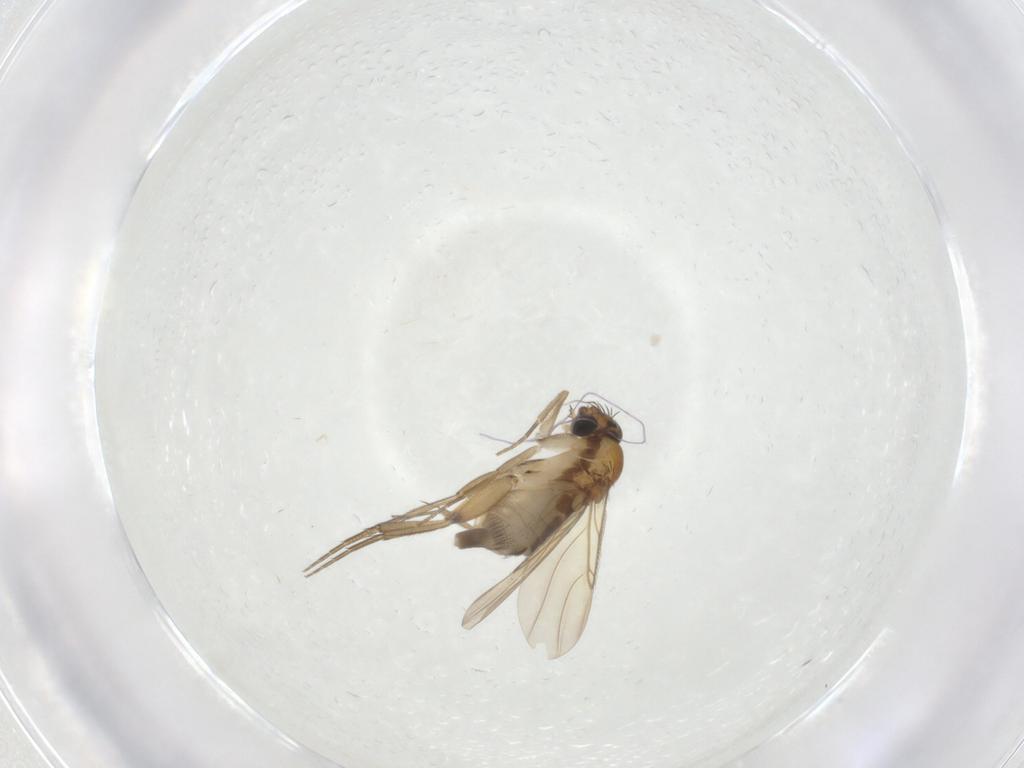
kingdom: Animalia
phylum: Arthropoda
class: Insecta
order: Diptera
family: Phoridae
